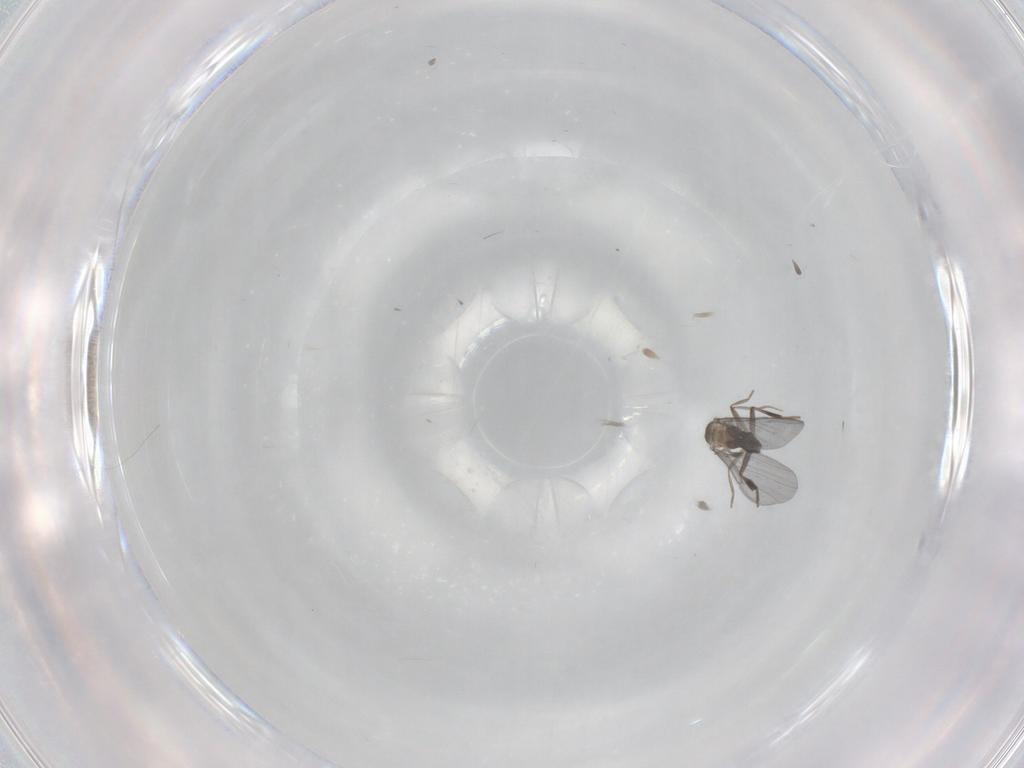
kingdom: Animalia
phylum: Arthropoda
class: Insecta
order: Diptera
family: Phoridae
